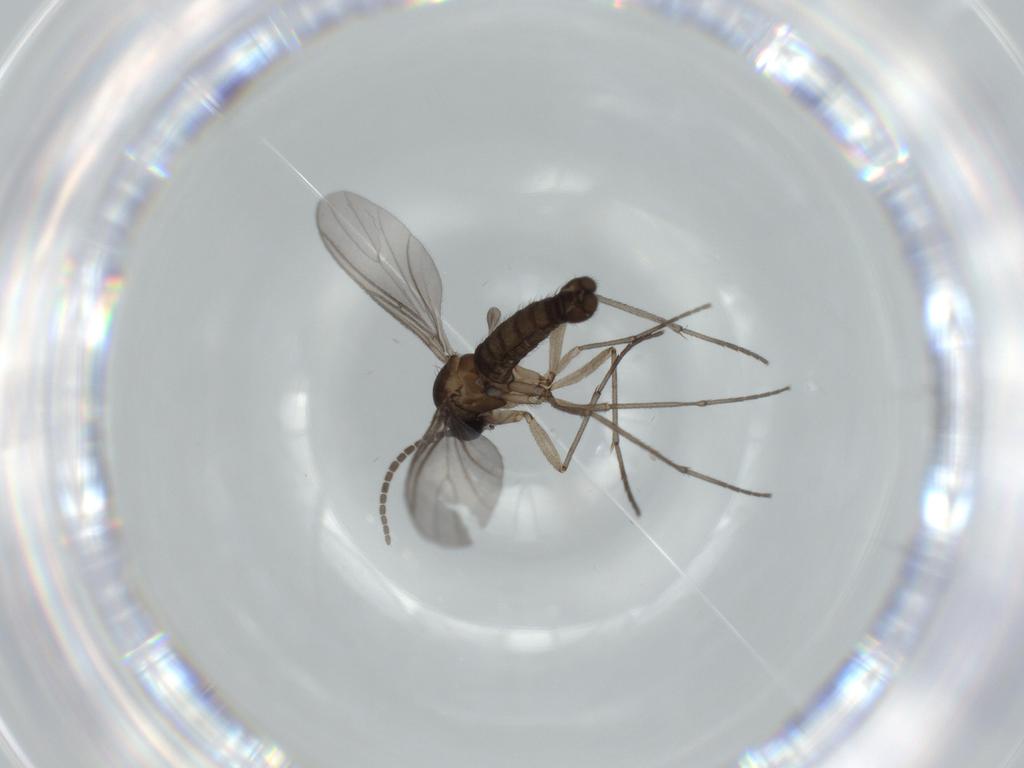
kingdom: Animalia
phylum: Arthropoda
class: Insecta
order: Diptera
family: Sciaridae
